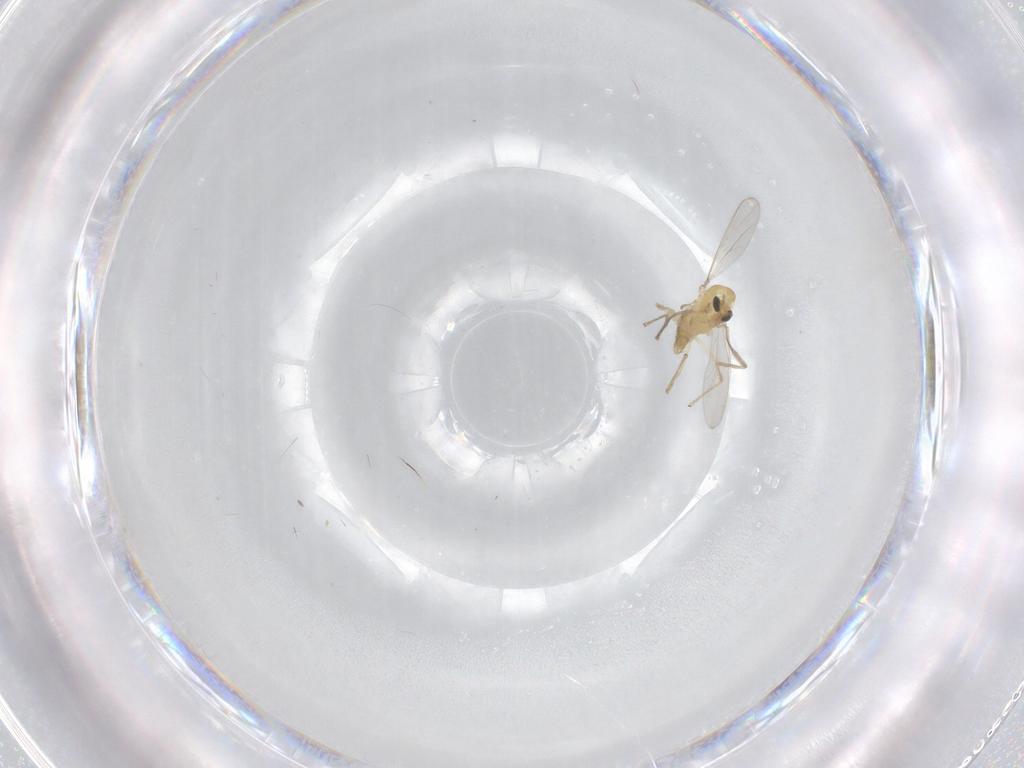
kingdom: Animalia
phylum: Arthropoda
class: Insecta
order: Diptera
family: Chironomidae
